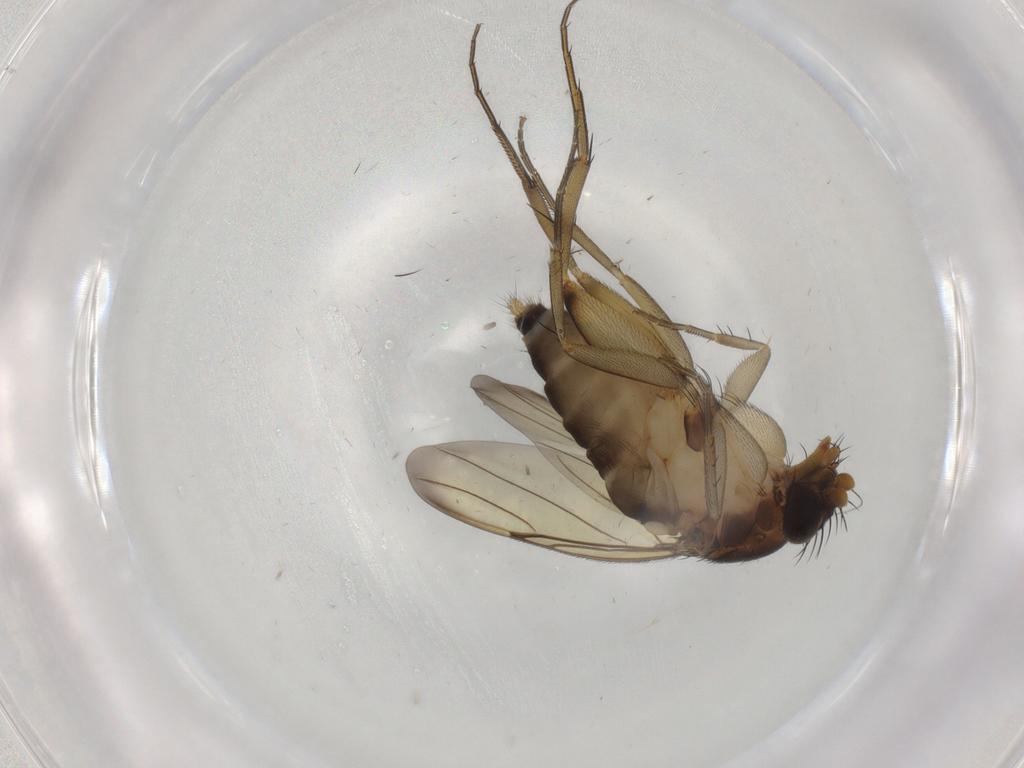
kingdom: Animalia
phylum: Arthropoda
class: Insecta
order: Diptera
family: Phoridae
